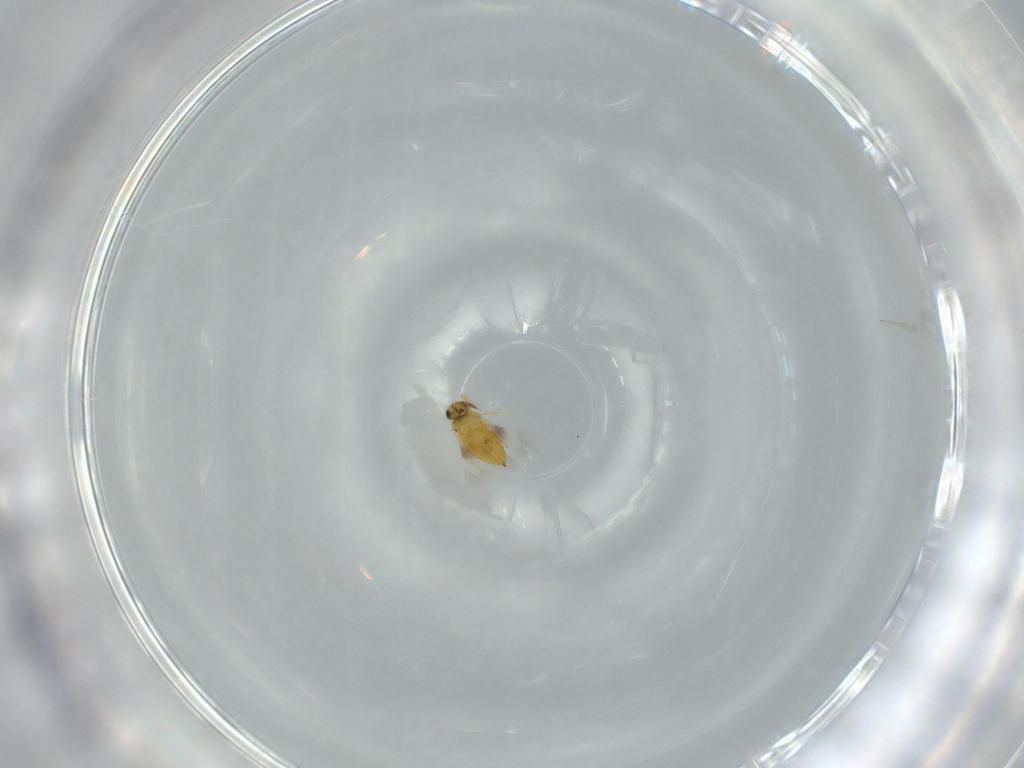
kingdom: Animalia
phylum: Arthropoda
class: Insecta
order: Hymenoptera
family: Signiphoridae
